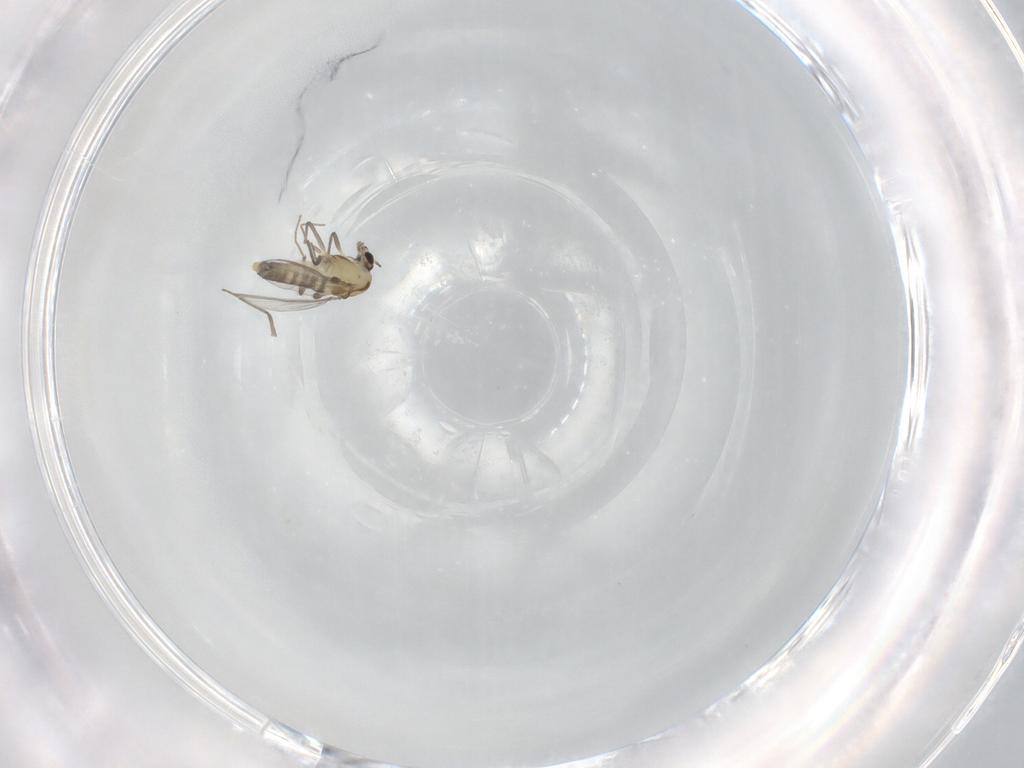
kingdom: Animalia
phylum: Arthropoda
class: Insecta
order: Diptera
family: Chironomidae
